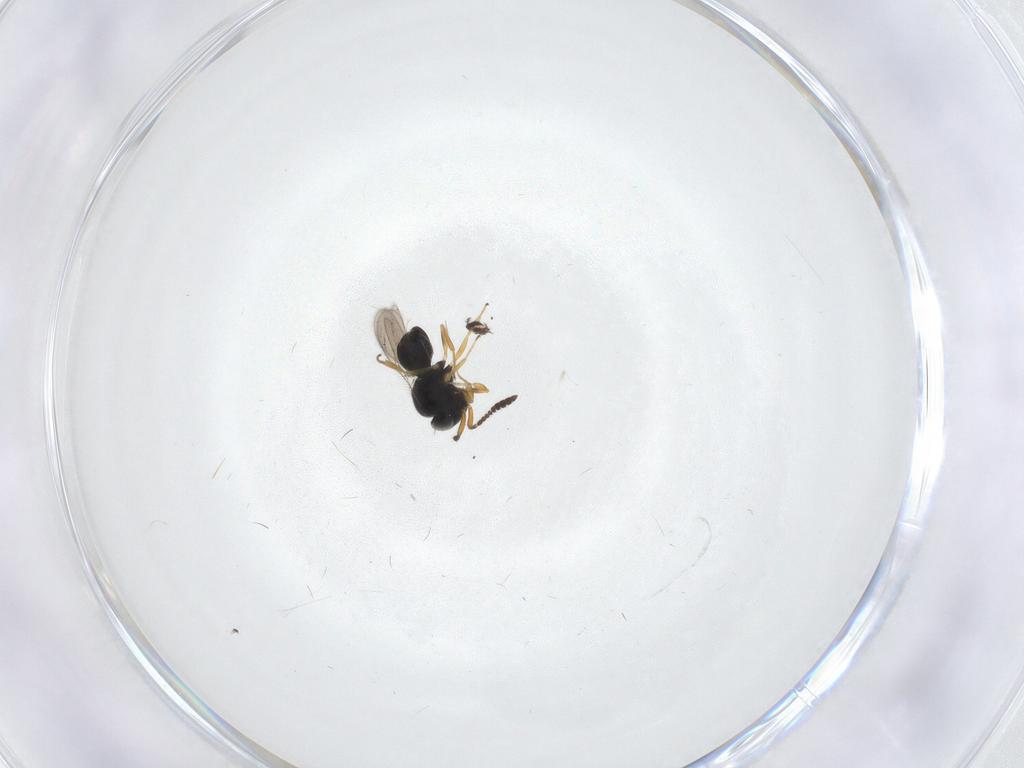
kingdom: Animalia
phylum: Arthropoda
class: Insecta
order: Hymenoptera
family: Scelionidae
